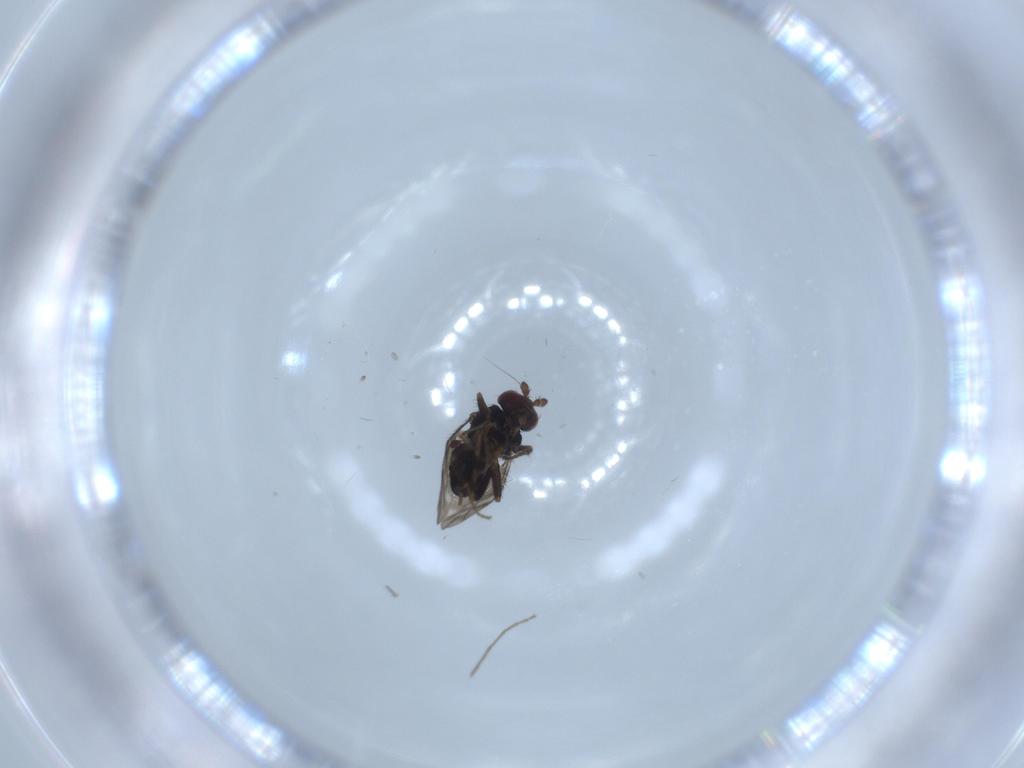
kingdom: Animalia
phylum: Arthropoda
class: Insecta
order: Diptera
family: Sphaeroceridae
